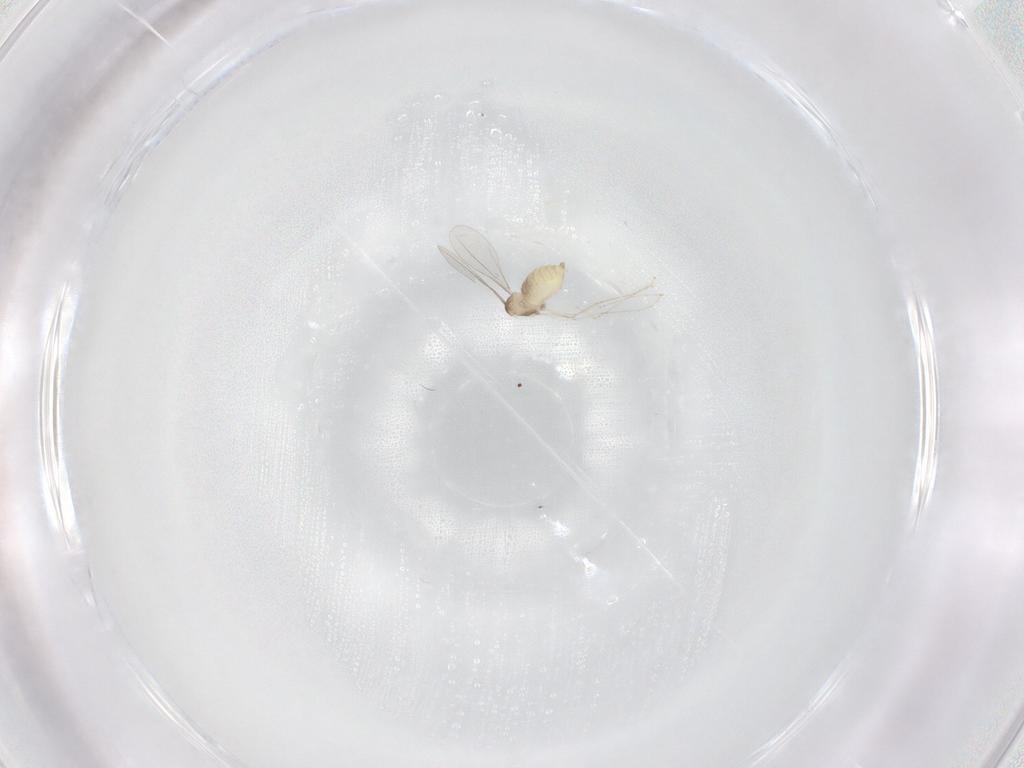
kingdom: Animalia
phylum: Arthropoda
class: Insecta
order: Diptera
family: Cecidomyiidae
